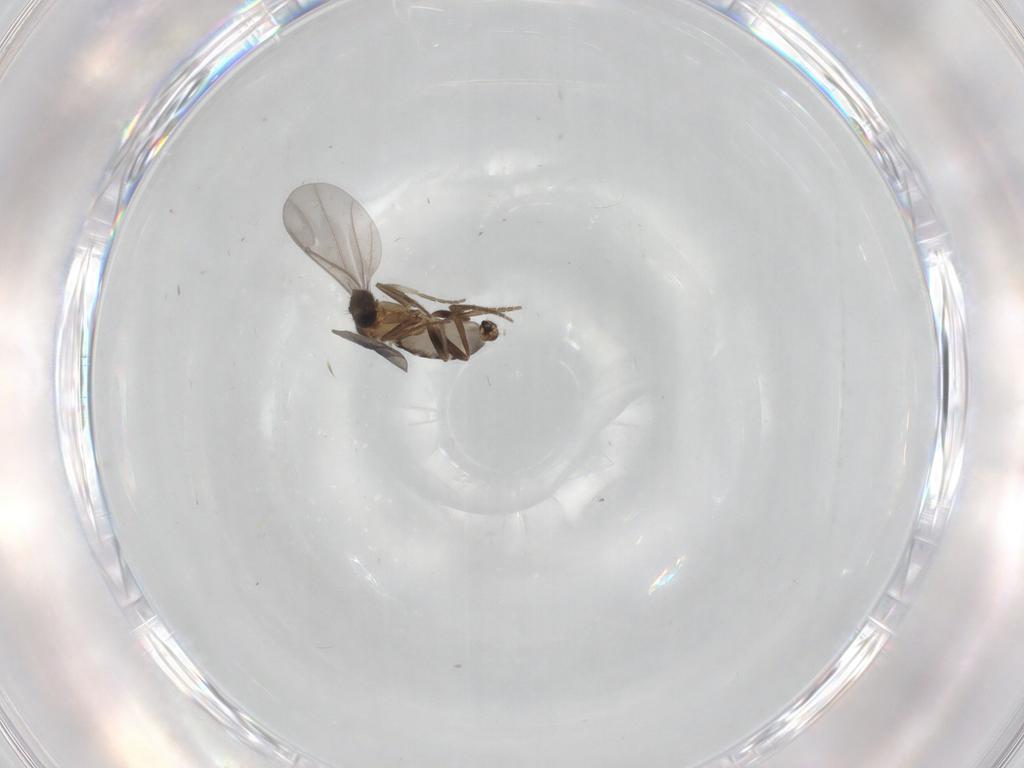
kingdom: Animalia
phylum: Arthropoda
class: Insecta
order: Diptera
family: Phoridae
